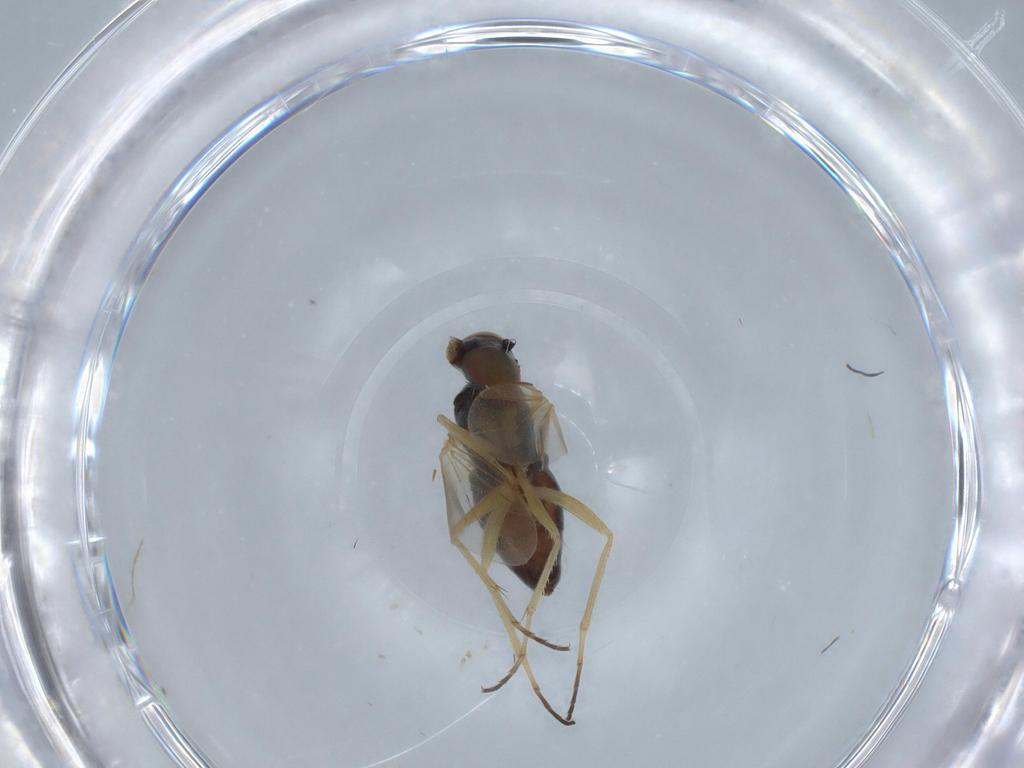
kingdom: Animalia
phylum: Arthropoda
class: Insecta
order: Diptera
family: Dolichopodidae
